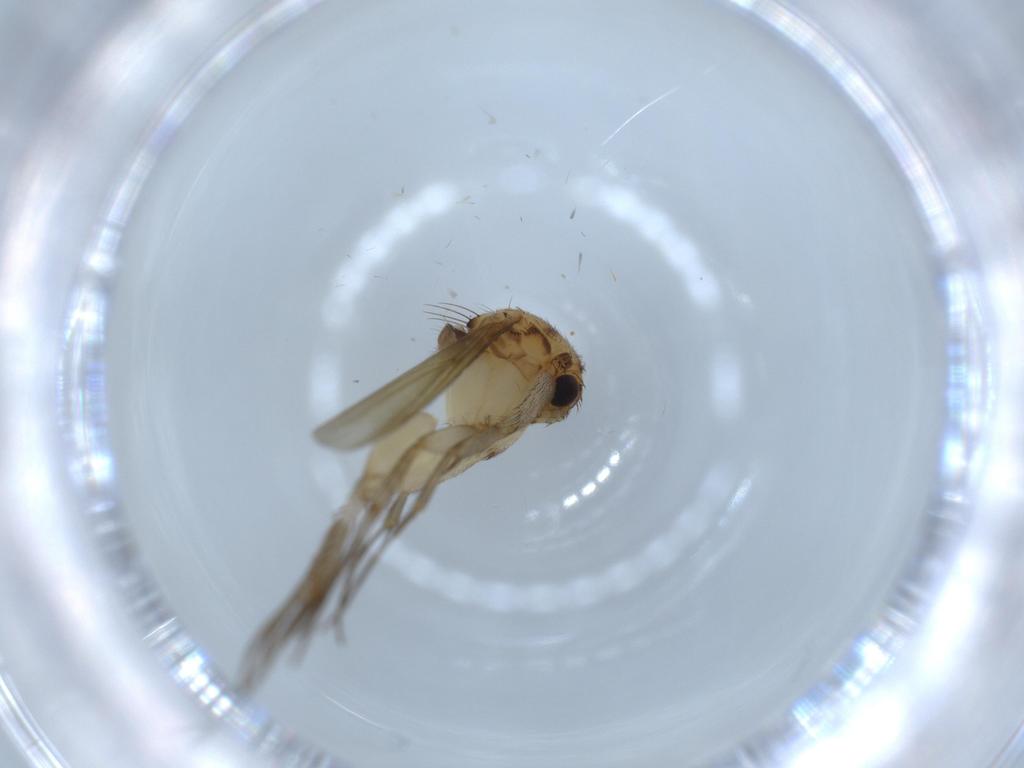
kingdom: Animalia
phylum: Arthropoda
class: Insecta
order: Diptera
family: Mycetophilidae
